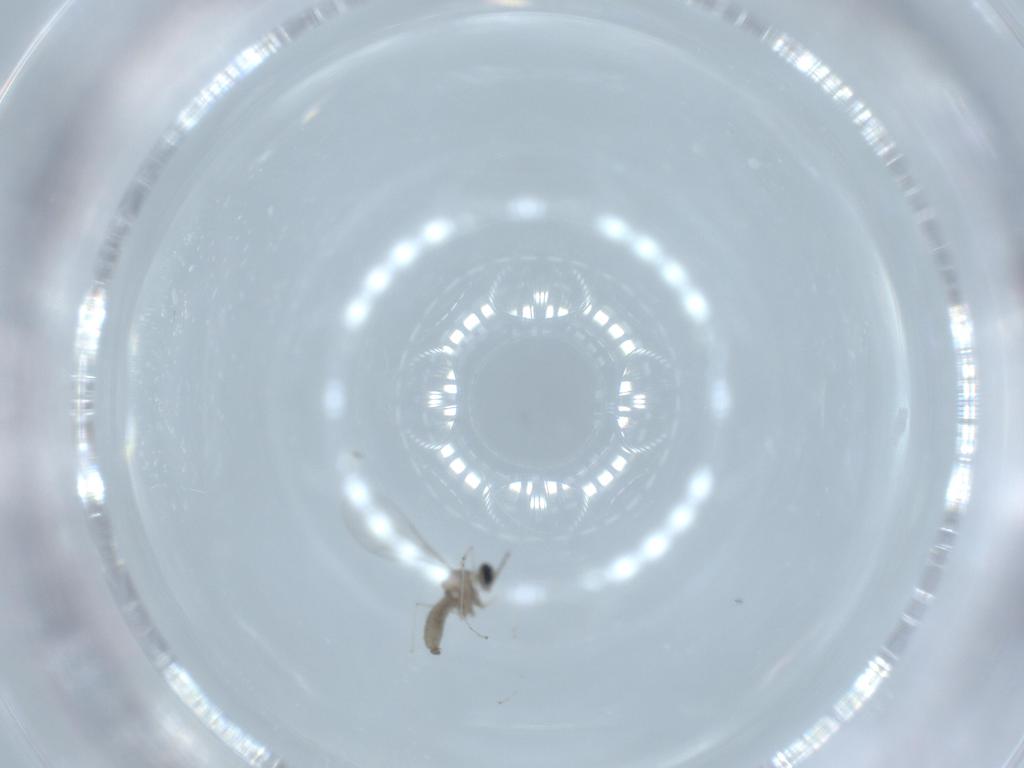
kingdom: Animalia
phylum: Arthropoda
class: Insecta
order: Diptera
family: Cecidomyiidae
